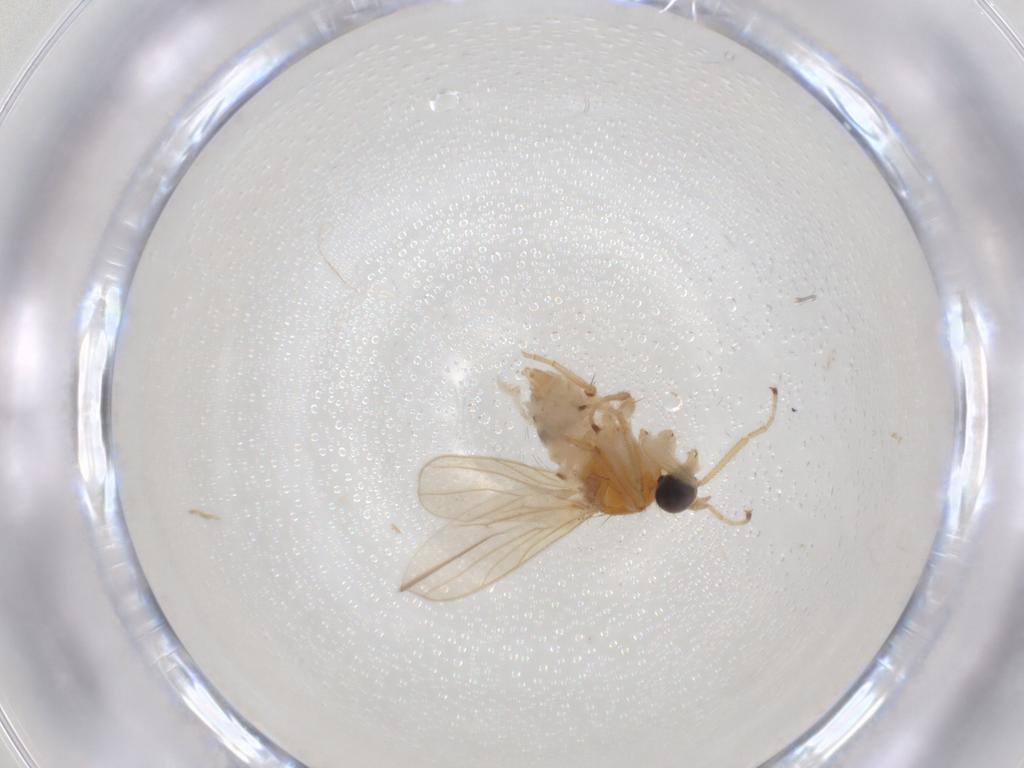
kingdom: Animalia
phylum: Arthropoda
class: Insecta
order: Diptera
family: Hybotidae
